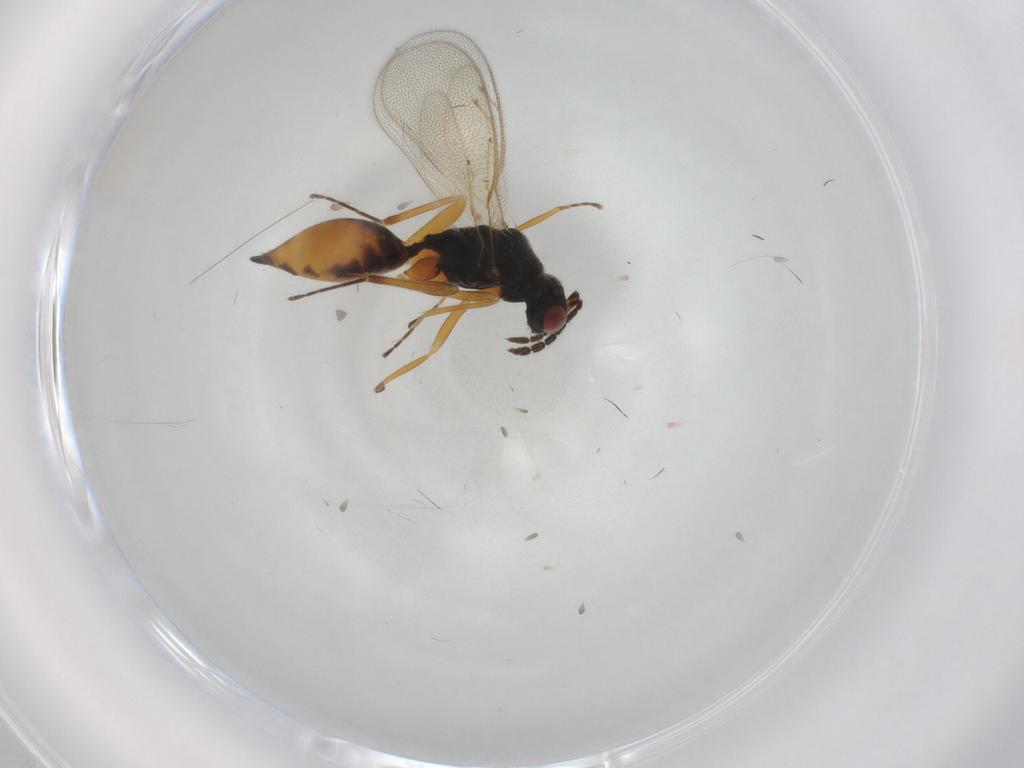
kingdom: Animalia
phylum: Arthropoda
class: Insecta
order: Hymenoptera
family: Eulophidae
